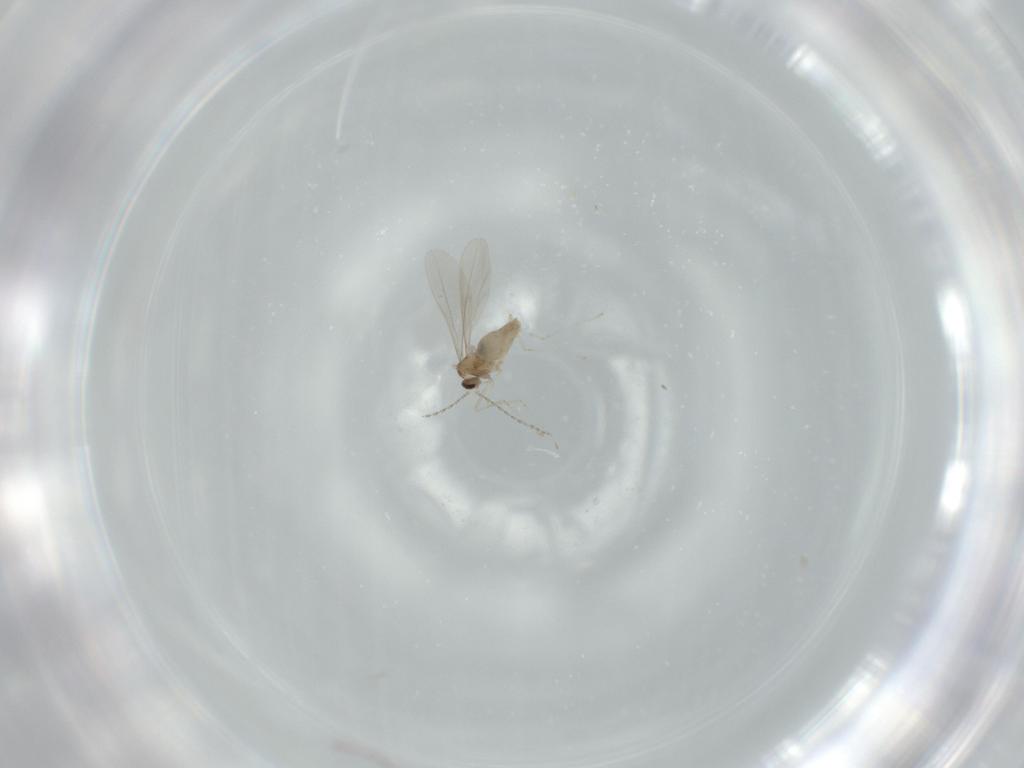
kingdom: Animalia
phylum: Arthropoda
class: Insecta
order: Diptera
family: Cecidomyiidae
